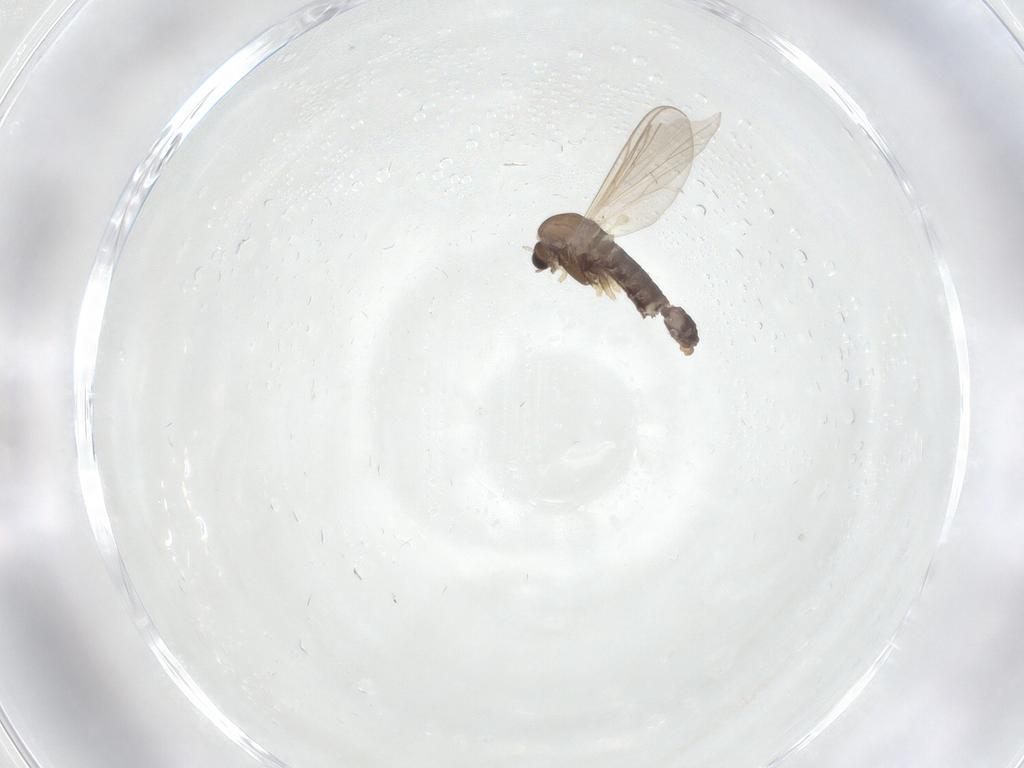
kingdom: Animalia
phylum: Arthropoda
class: Insecta
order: Diptera
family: Chironomidae
